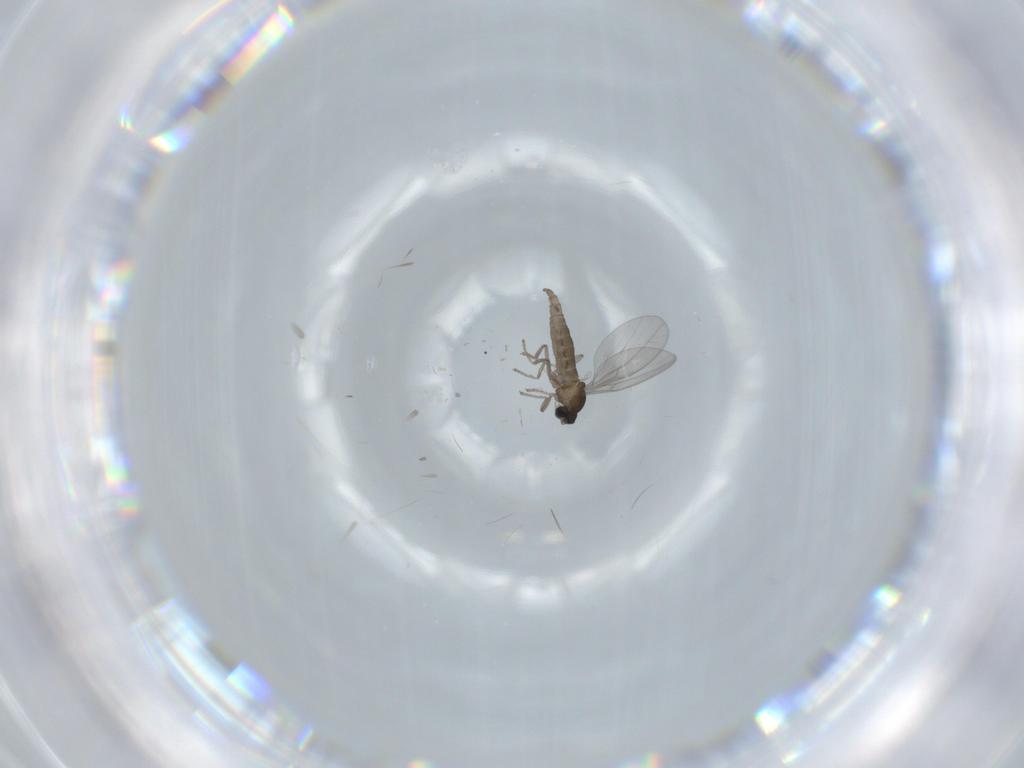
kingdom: Animalia
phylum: Arthropoda
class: Insecta
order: Diptera
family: Cecidomyiidae
